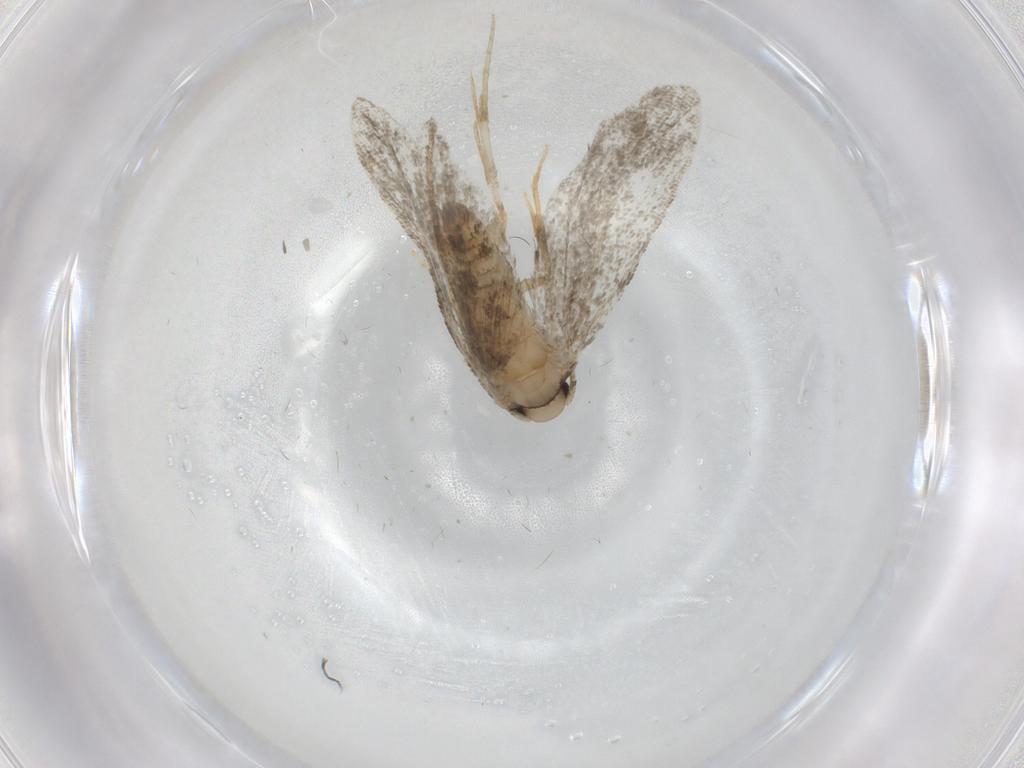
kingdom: Animalia
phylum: Arthropoda
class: Insecta
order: Lepidoptera
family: Psychidae
